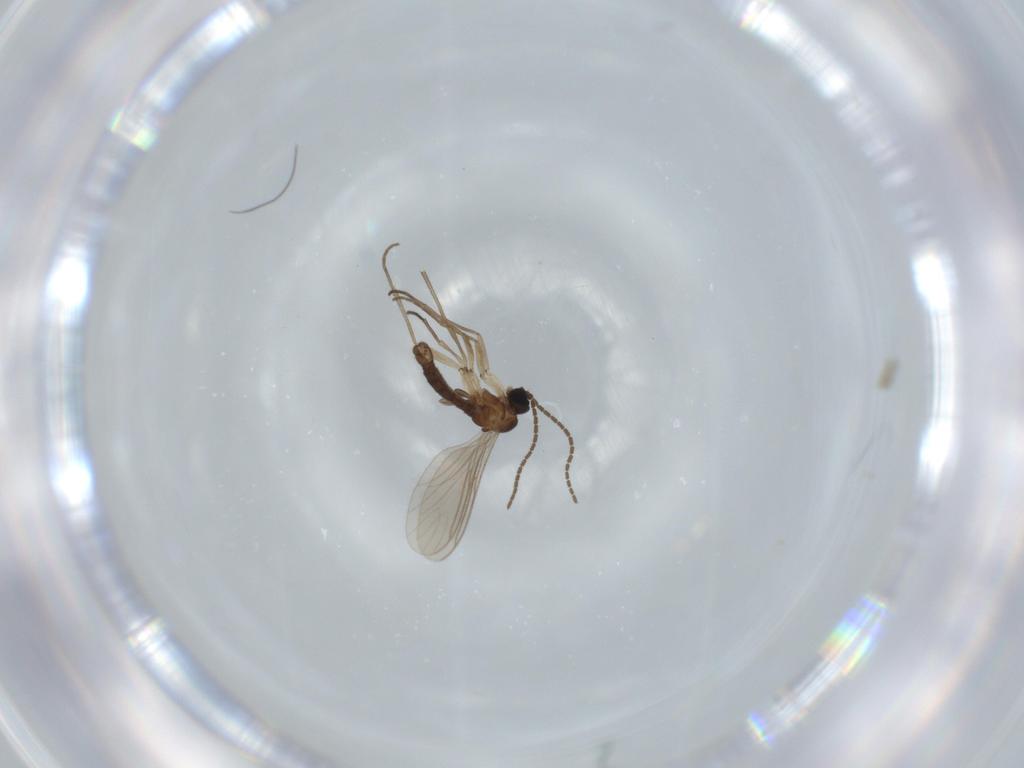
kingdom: Animalia
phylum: Arthropoda
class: Insecta
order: Diptera
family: Sciaridae
